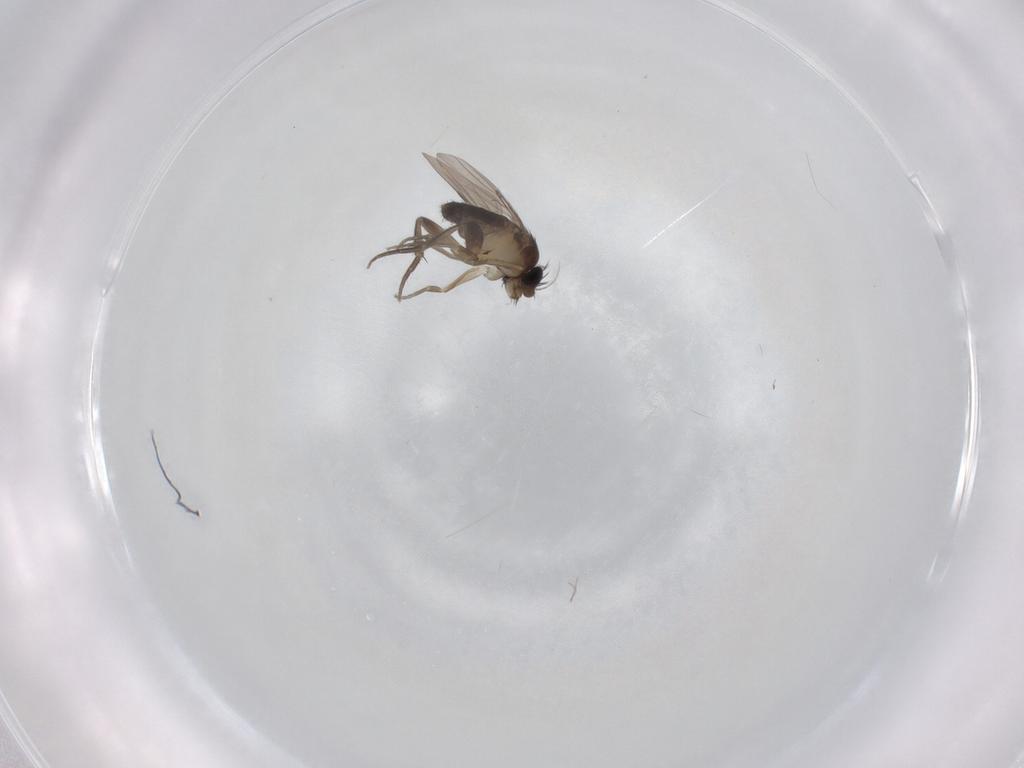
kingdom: Animalia
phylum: Arthropoda
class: Insecta
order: Diptera
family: Phoridae
